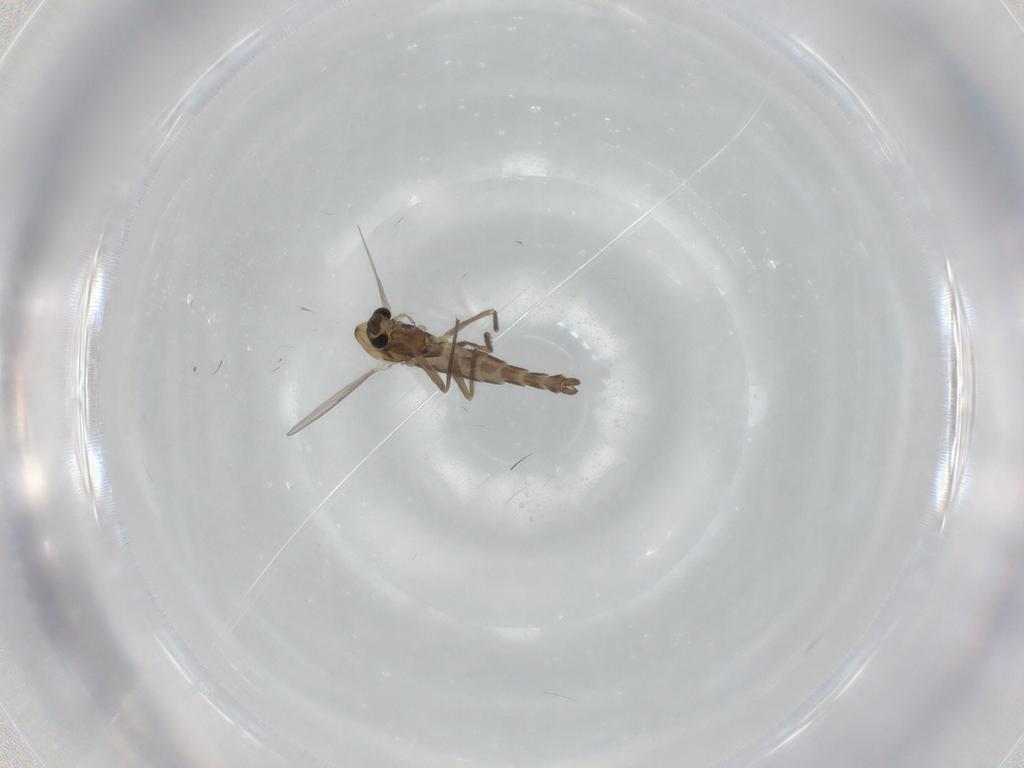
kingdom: Animalia
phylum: Arthropoda
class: Insecta
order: Diptera
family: Chironomidae
